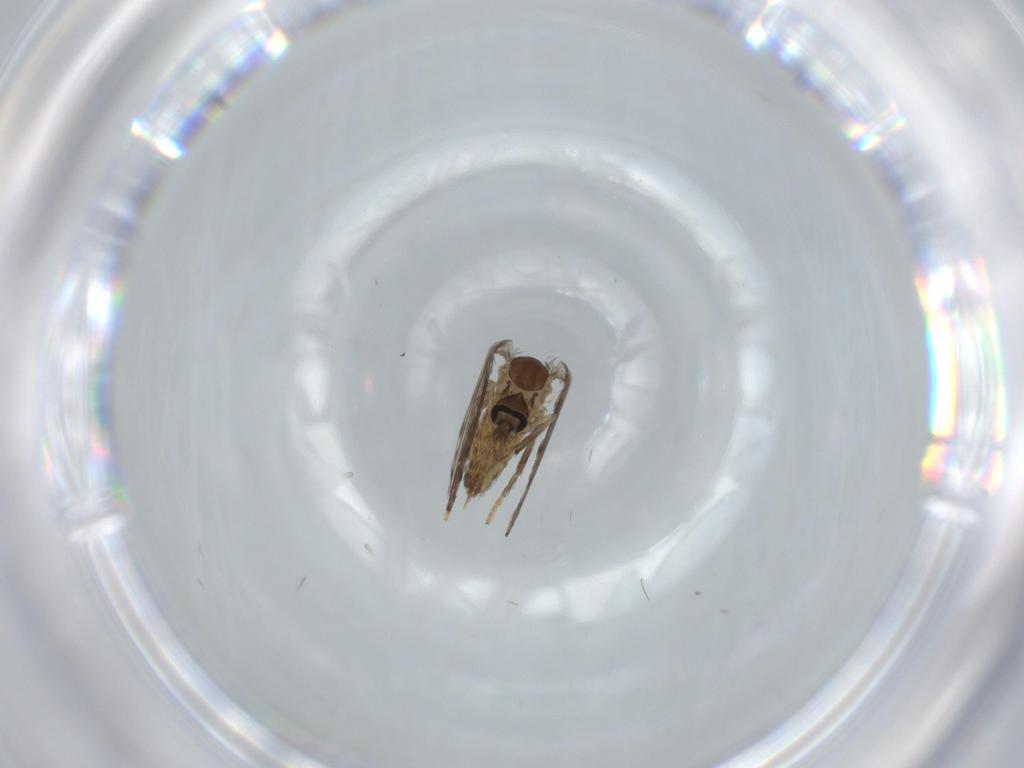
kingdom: Animalia
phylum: Arthropoda
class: Insecta
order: Diptera
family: Psychodidae
